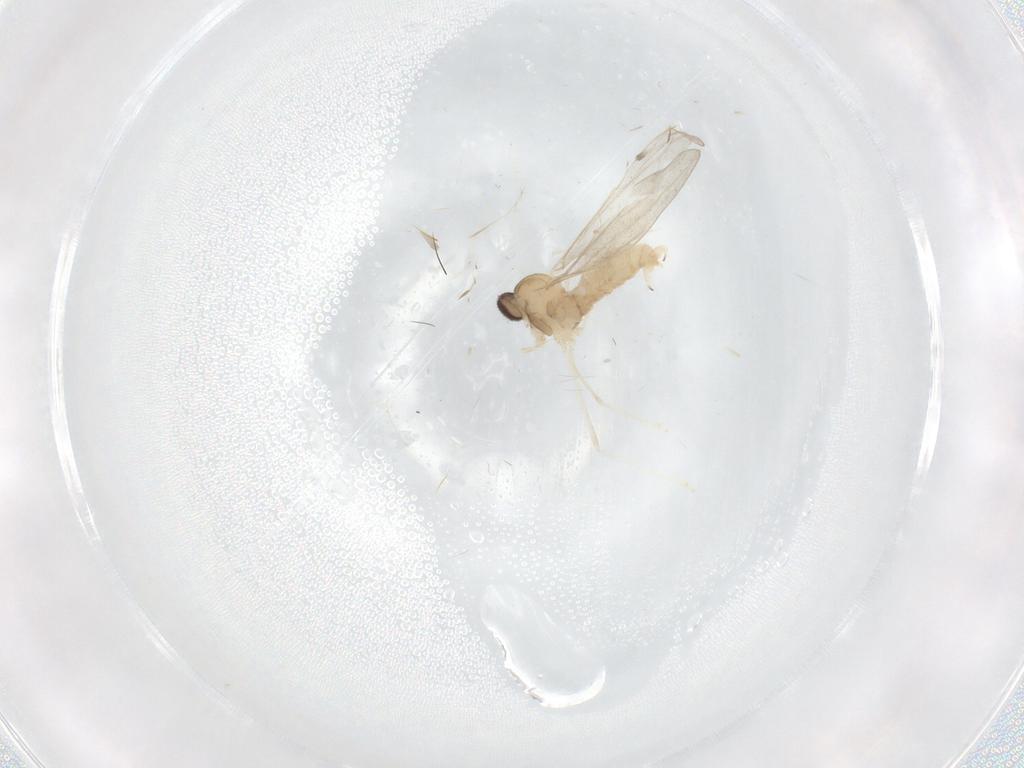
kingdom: Animalia
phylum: Arthropoda
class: Insecta
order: Diptera
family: Cecidomyiidae
